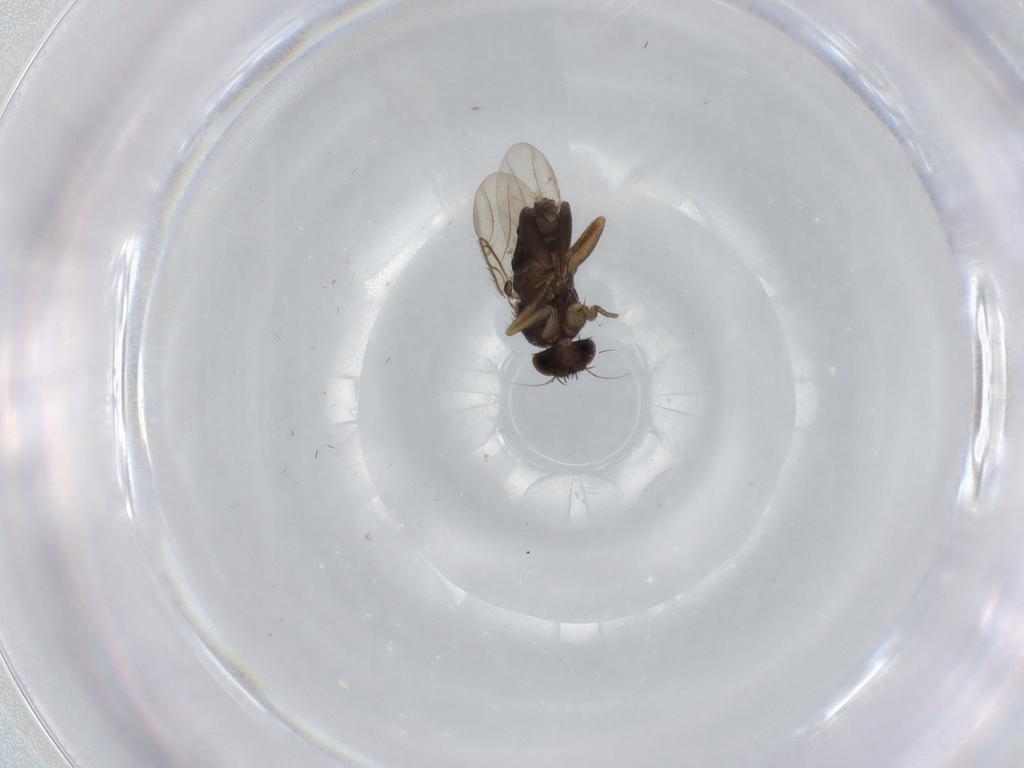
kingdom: Animalia
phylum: Arthropoda
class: Insecta
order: Diptera
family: Phoridae
